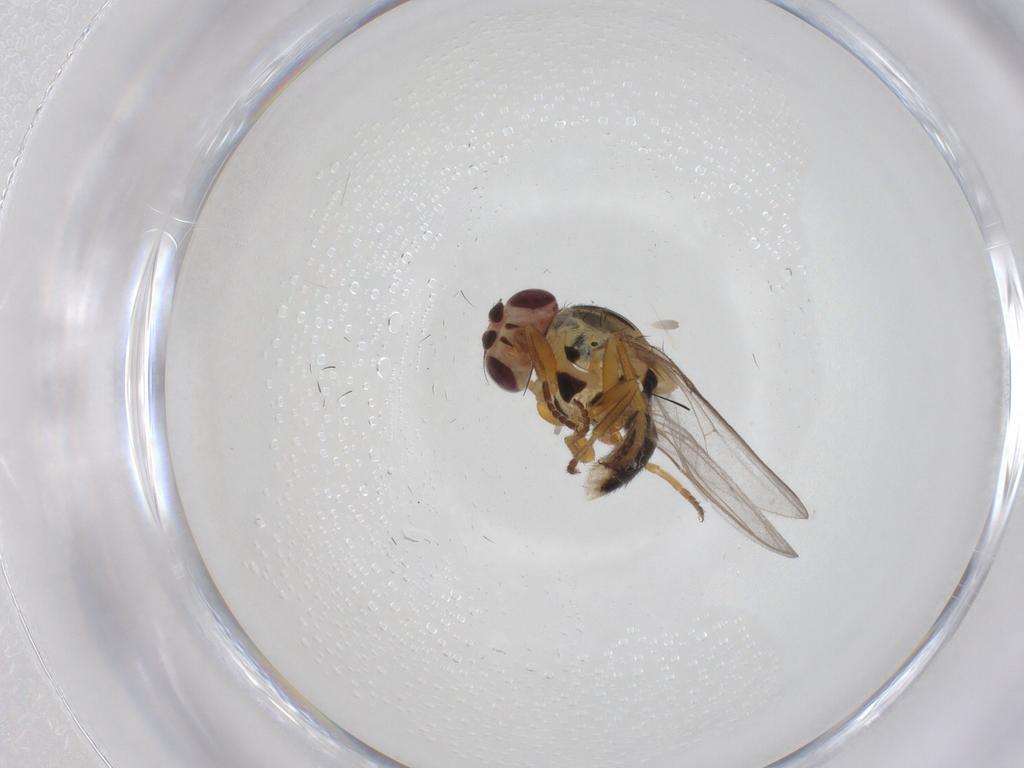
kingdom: Animalia
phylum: Arthropoda
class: Insecta
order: Diptera
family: Chloropidae
